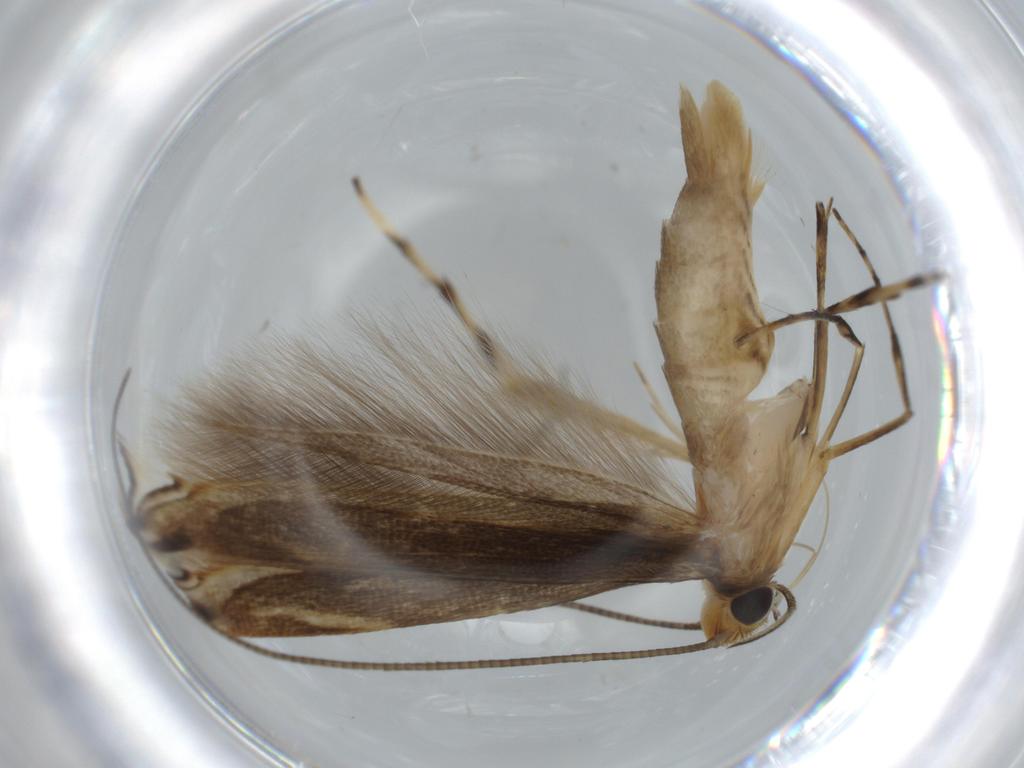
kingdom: Animalia
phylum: Arthropoda
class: Insecta
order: Lepidoptera
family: Gracillariidae
